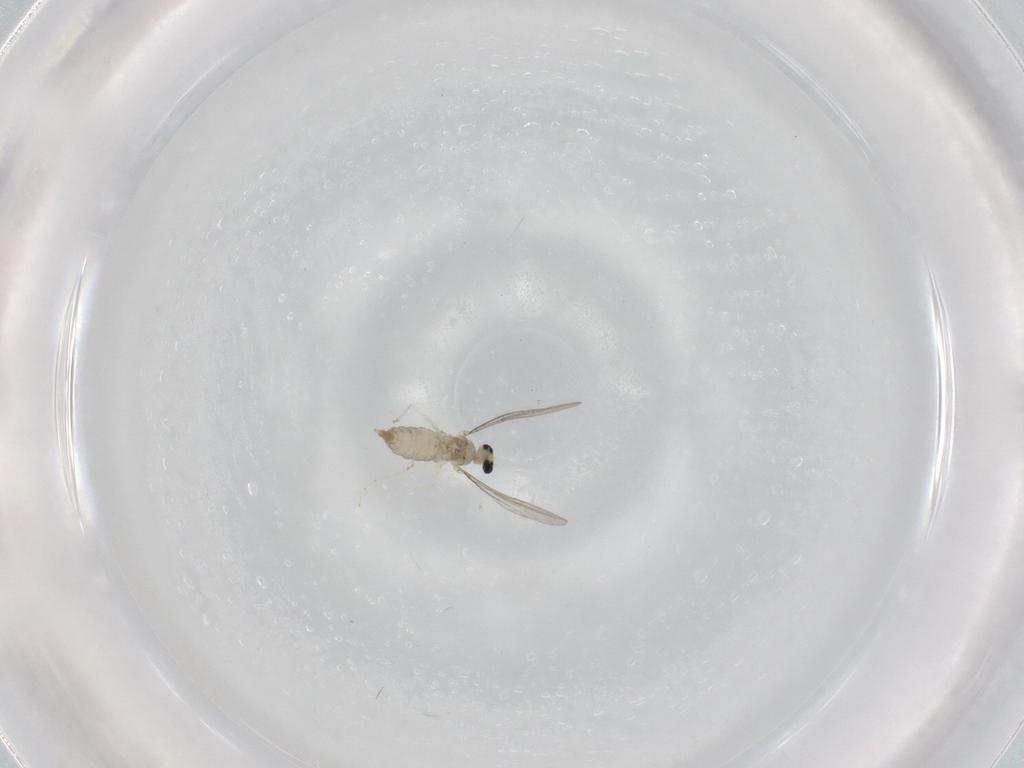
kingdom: Animalia
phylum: Arthropoda
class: Insecta
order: Diptera
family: Cecidomyiidae
